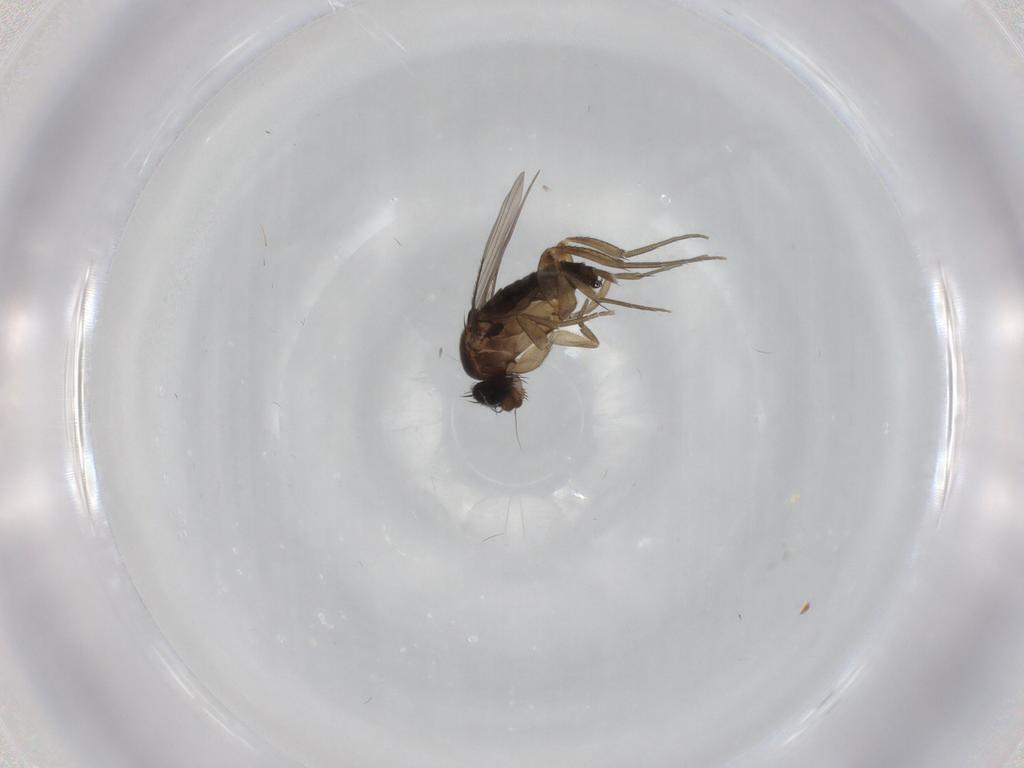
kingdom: Animalia
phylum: Arthropoda
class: Insecta
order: Diptera
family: Phoridae
